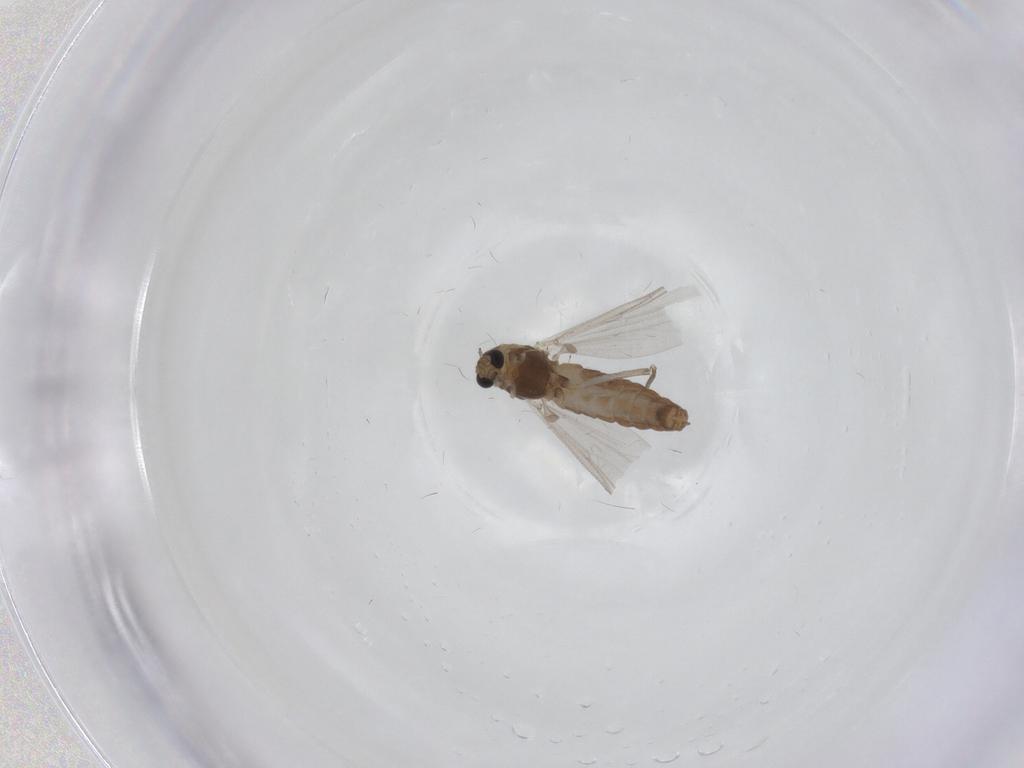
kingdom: Animalia
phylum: Arthropoda
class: Insecta
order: Diptera
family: Chironomidae
